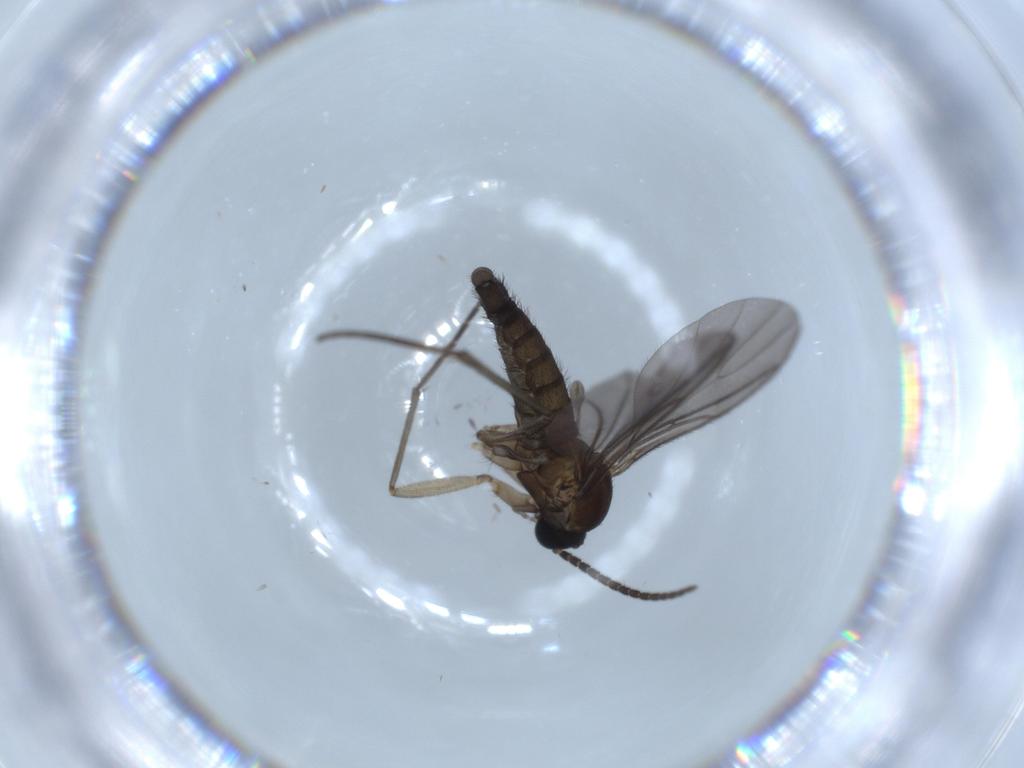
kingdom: Animalia
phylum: Arthropoda
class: Insecta
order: Diptera
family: Sciaridae
